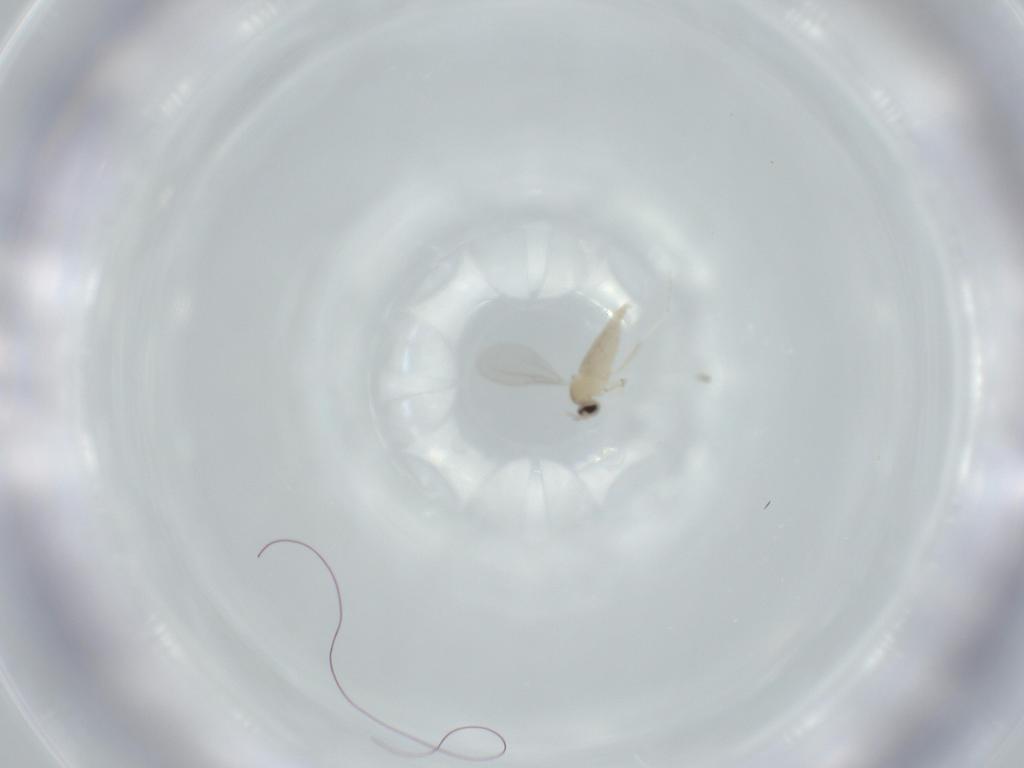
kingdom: Animalia
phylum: Arthropoda
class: Insecta
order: Diptera
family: Cecidomyiidae
